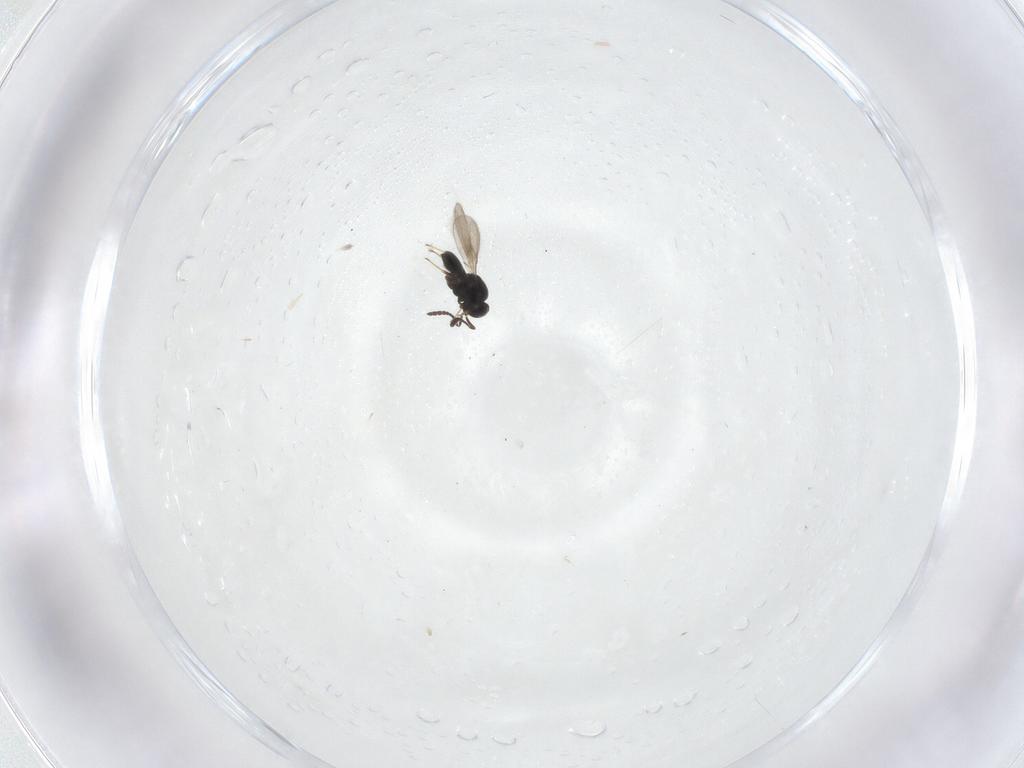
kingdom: Animalia
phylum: Arthropoda
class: Insecta
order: Hymenoptera
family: Scelionidae
